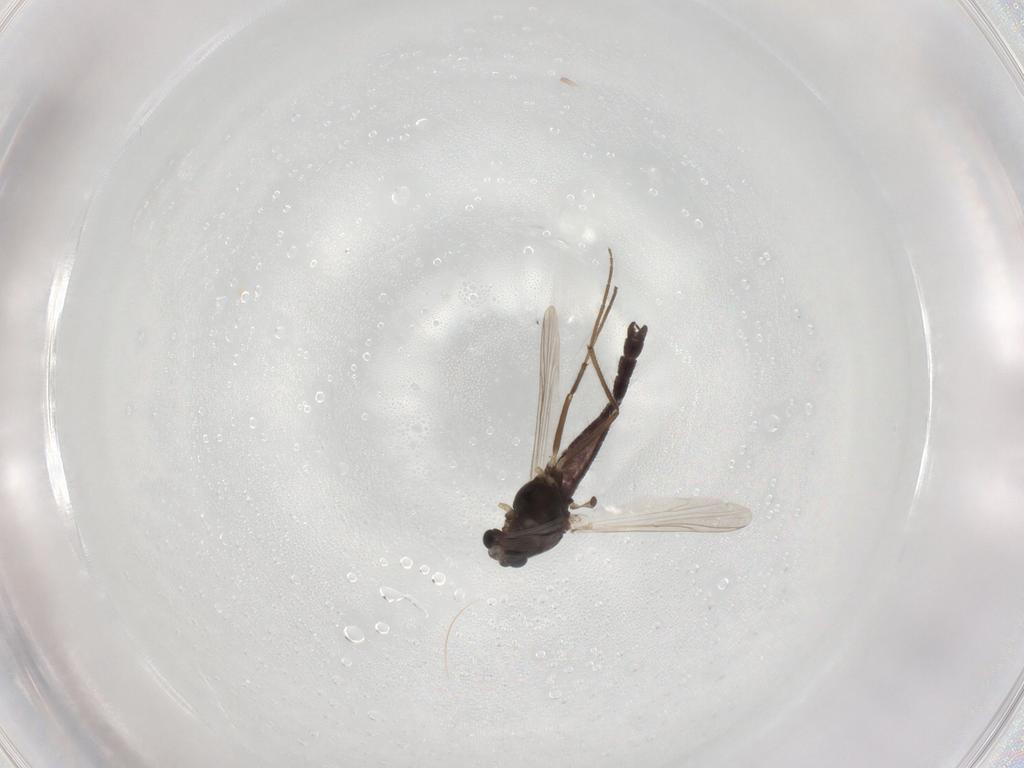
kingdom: Animalia
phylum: Arthropoda
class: Insecta
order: Diptera
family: Chironomidae
